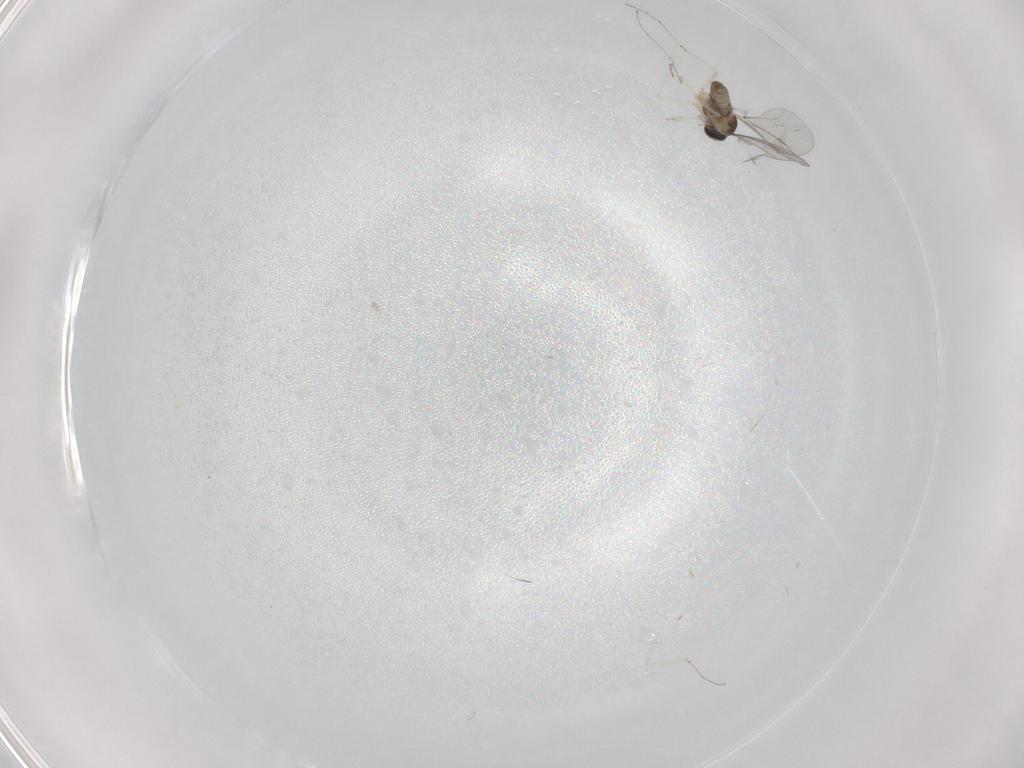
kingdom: Animalia
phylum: Arthropoda
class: Insecta
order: Diptera
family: Cecidomyiidae
